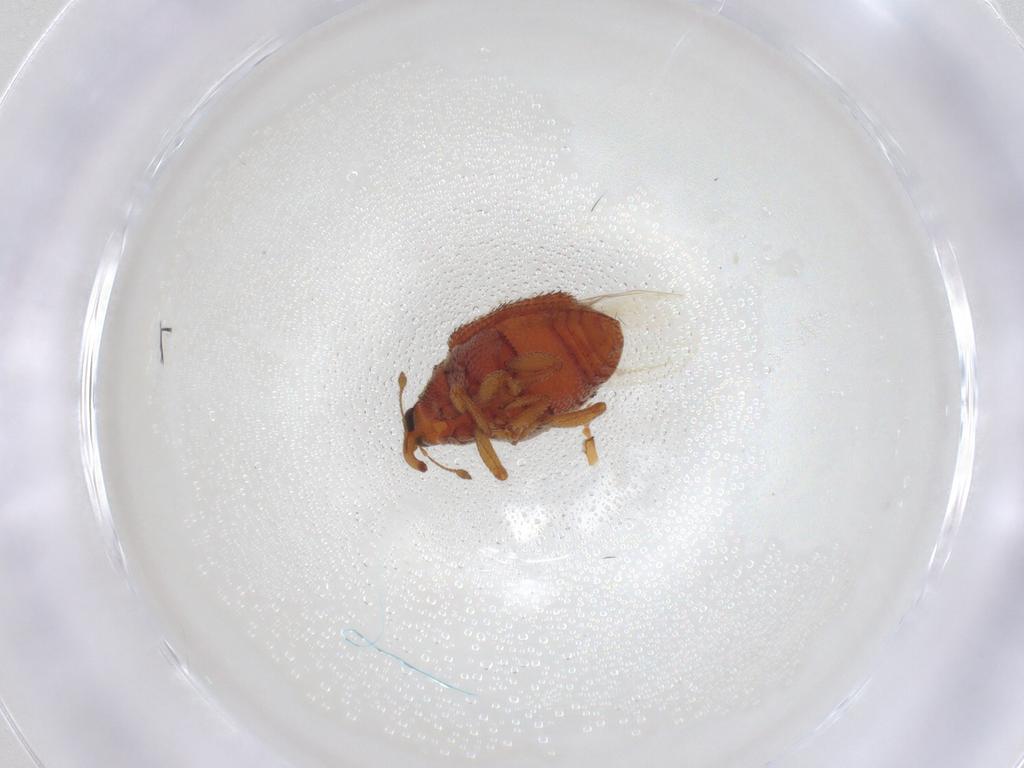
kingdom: Animalia
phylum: Arthropoda
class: Insecta
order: Coleoptera
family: Curculionidae
